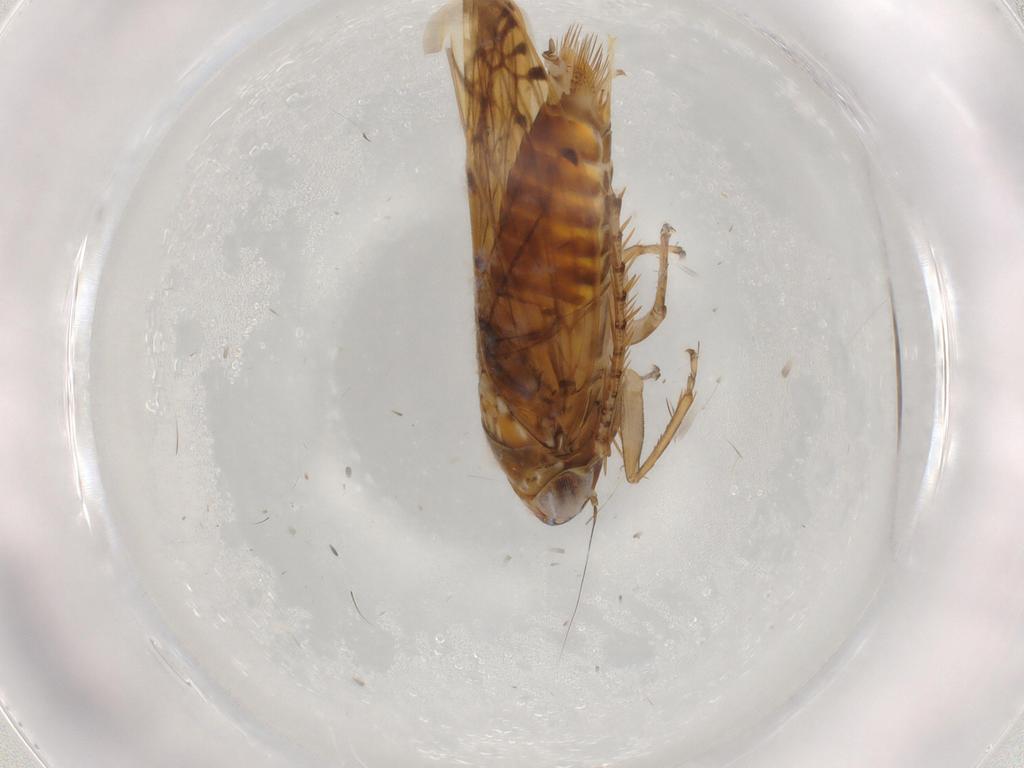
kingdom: Animalia
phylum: Arthropoda
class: Insecta
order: Hemiptera
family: Cicadellidae
